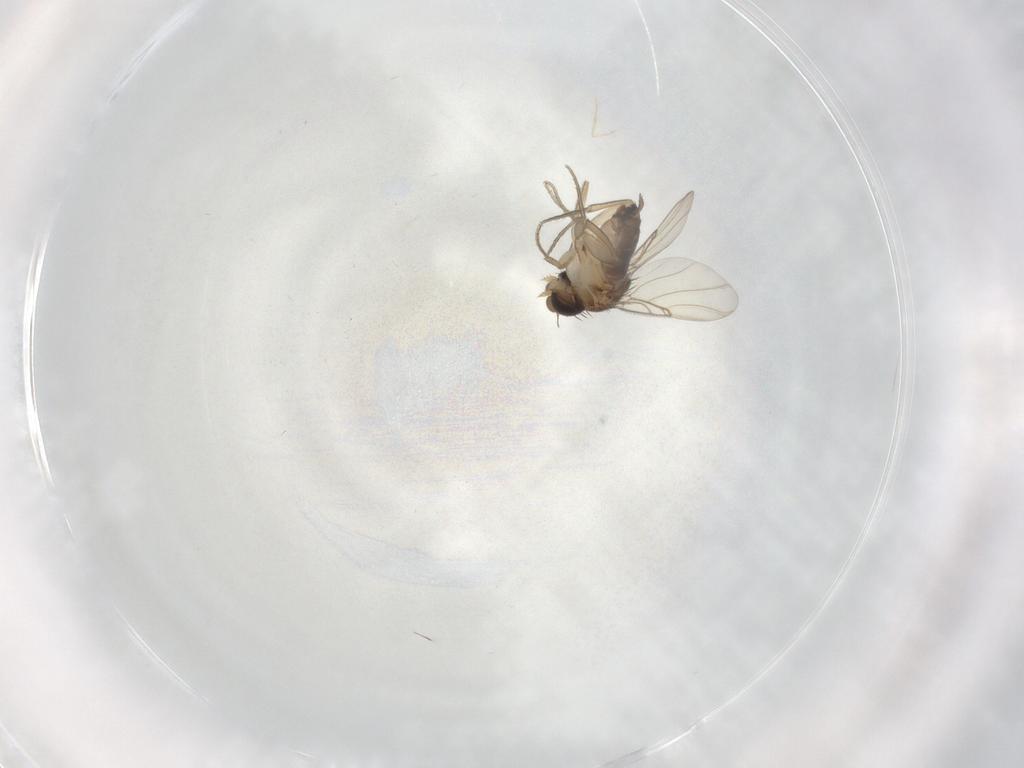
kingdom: Animalia
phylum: Arthropoda
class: Insecta
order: Diptera
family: Phoridae
